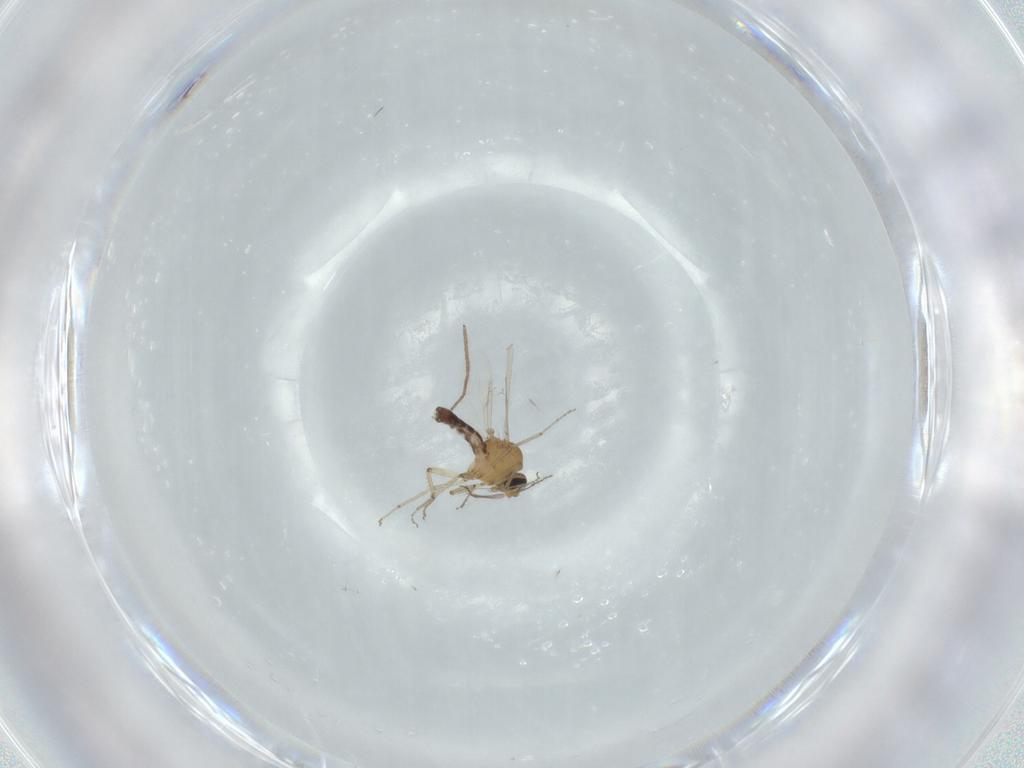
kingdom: Animalia
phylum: Arthropoda
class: Insecta
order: Diptera
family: Ceratopogonidae
